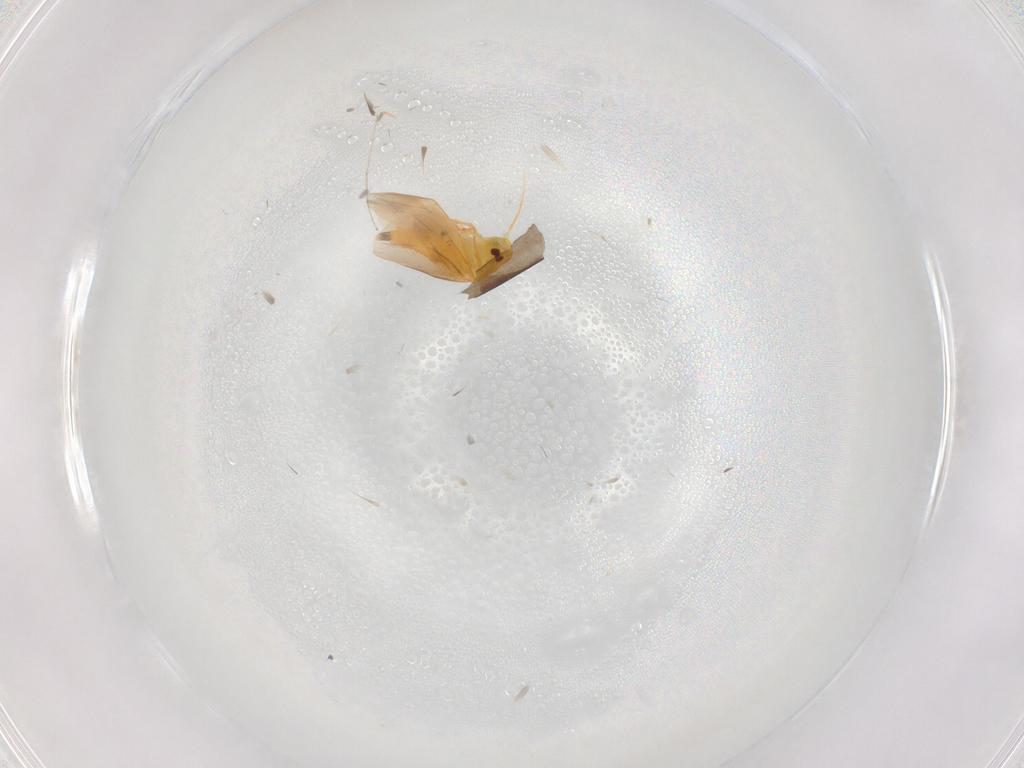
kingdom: Animalia
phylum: Arthropoda
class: Insecta
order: Hemiptera
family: Aleyrodidae
